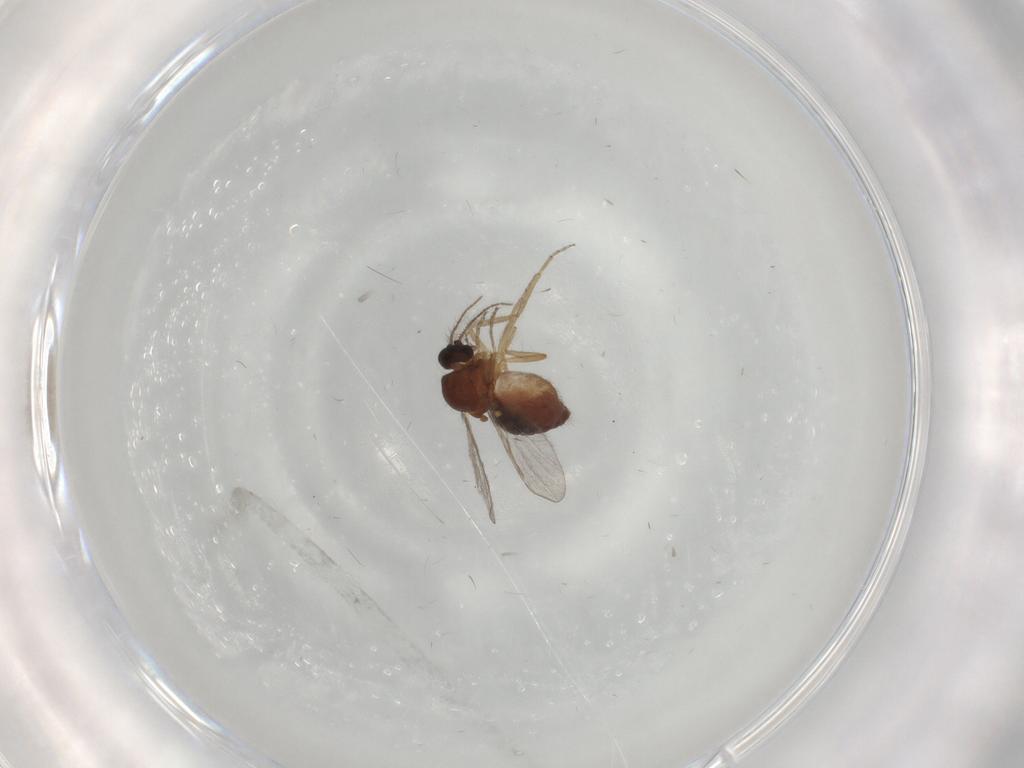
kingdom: Animalia
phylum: Arthropoda
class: Insecta
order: Diptera
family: Ceratopogonidae
